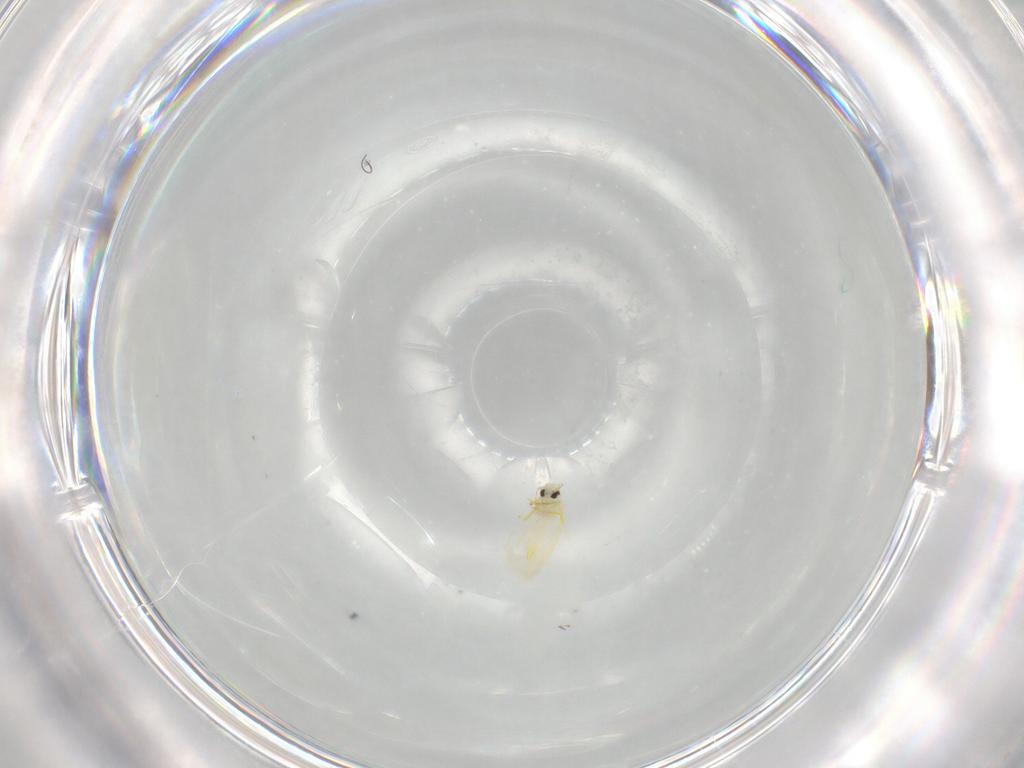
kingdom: Animalia
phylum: Arthropoda
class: Insecta
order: Hemiptera
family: Aleyrodidae
